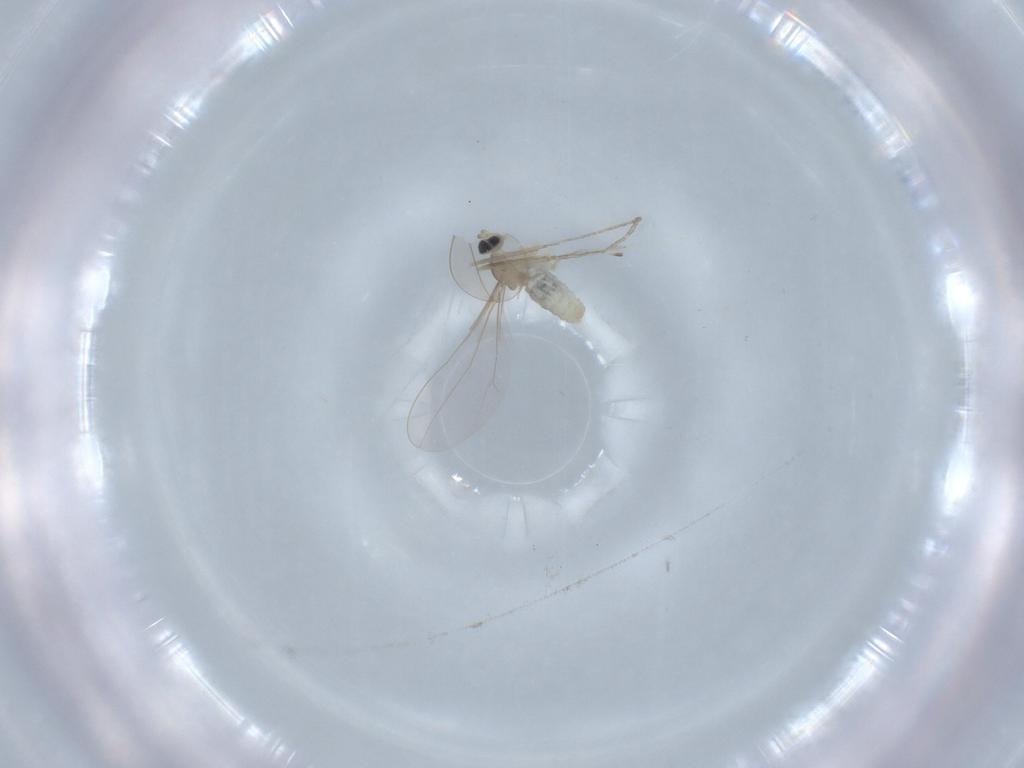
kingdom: Animalia
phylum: Arthropoda
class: Insecta
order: Diptera
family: Cecidomyiidae
